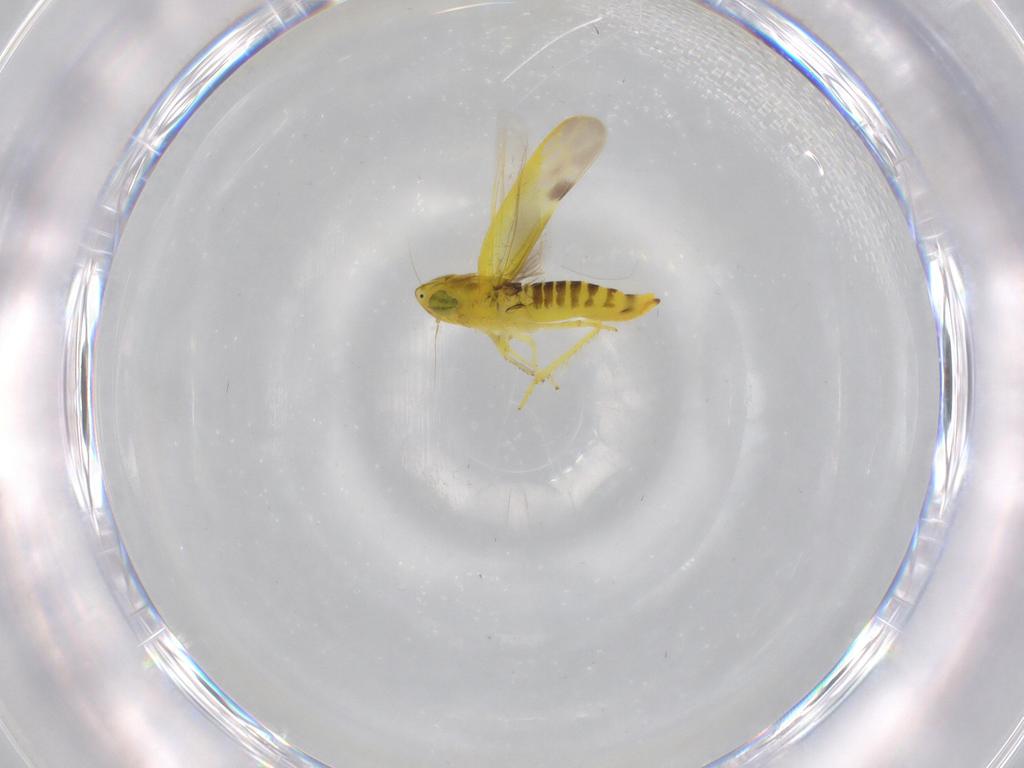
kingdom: Animalia
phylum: Arthropoda
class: Insecta
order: Hemiptera
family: Cicadellidae
